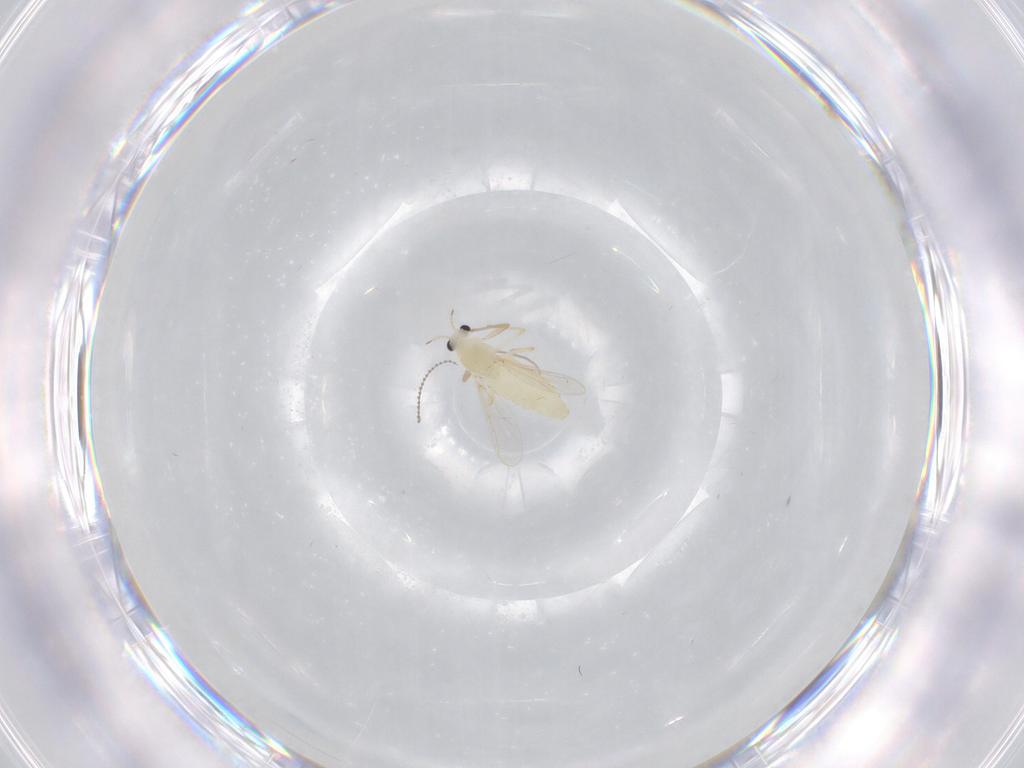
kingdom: Animalia
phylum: Arthropoda
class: Insecta
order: Diptera
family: Chironomidae
